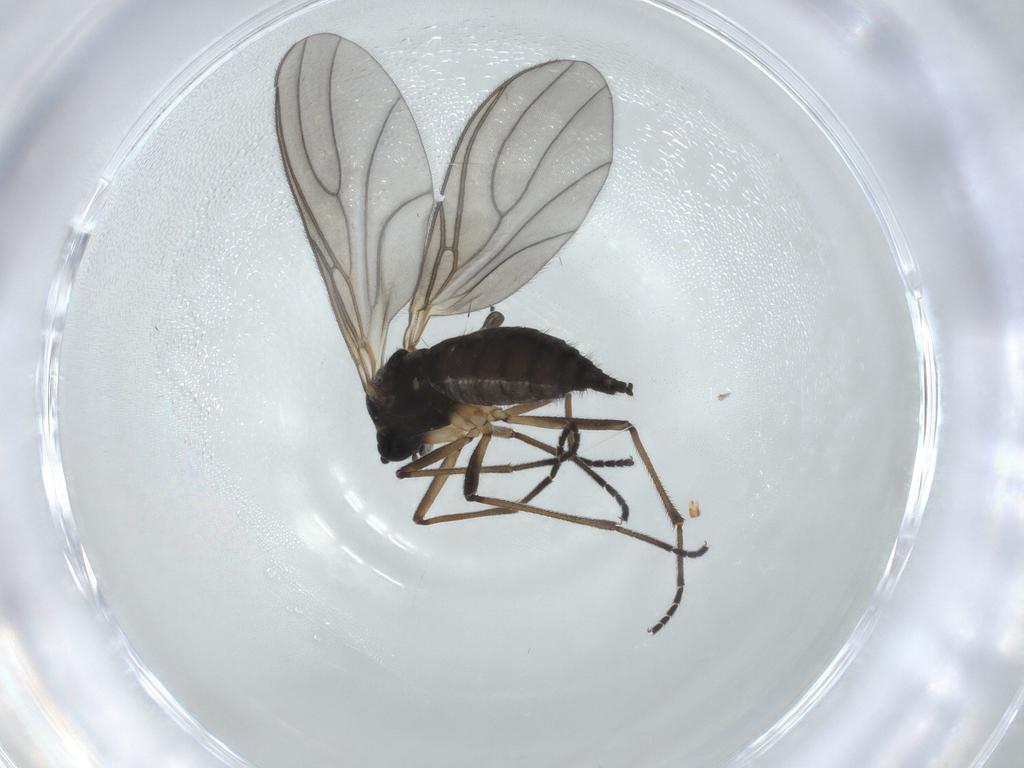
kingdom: Animalia
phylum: Arthropoda
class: Insecta
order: Diptera
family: Sciaridae
